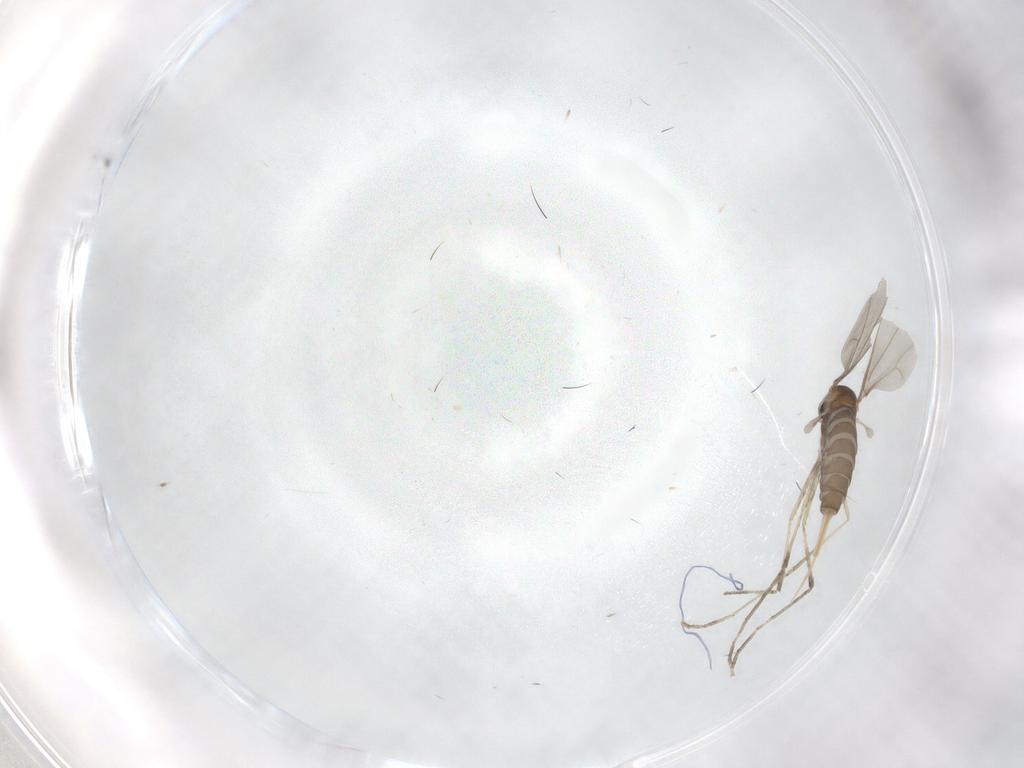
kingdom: Animalia
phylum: Arthropoda
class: Insecta
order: Diptera
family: Cecidomyiidae
